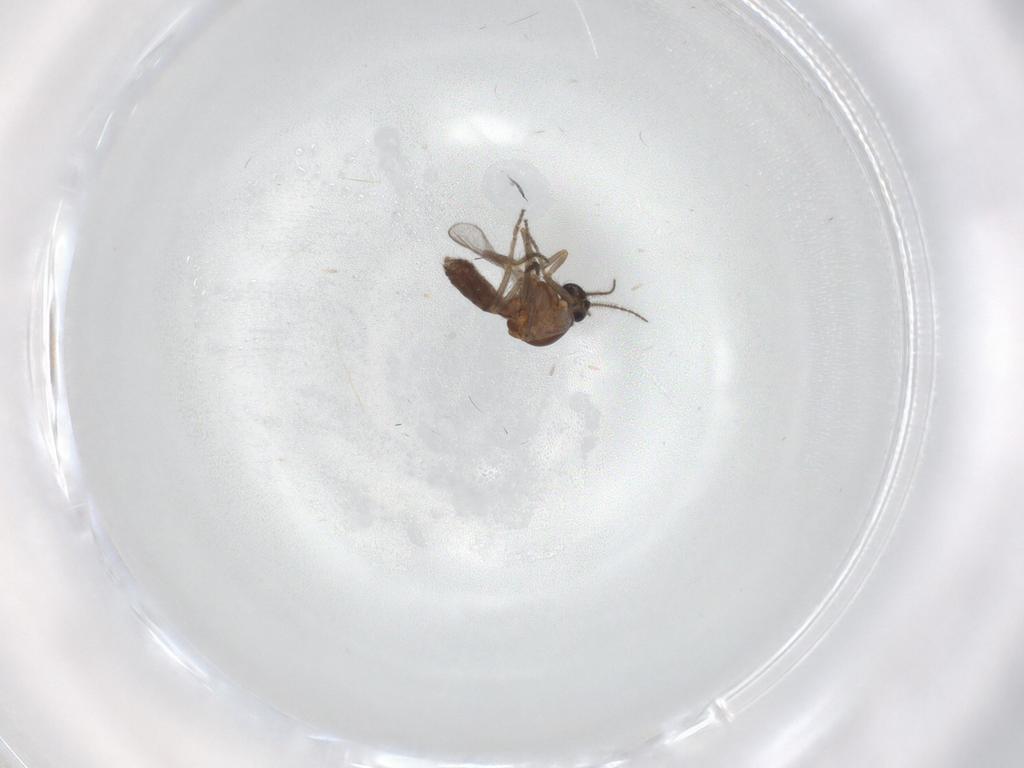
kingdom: Animalia
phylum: Arthropoda
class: Insecta
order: Diptera
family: Ceratopogonidae
